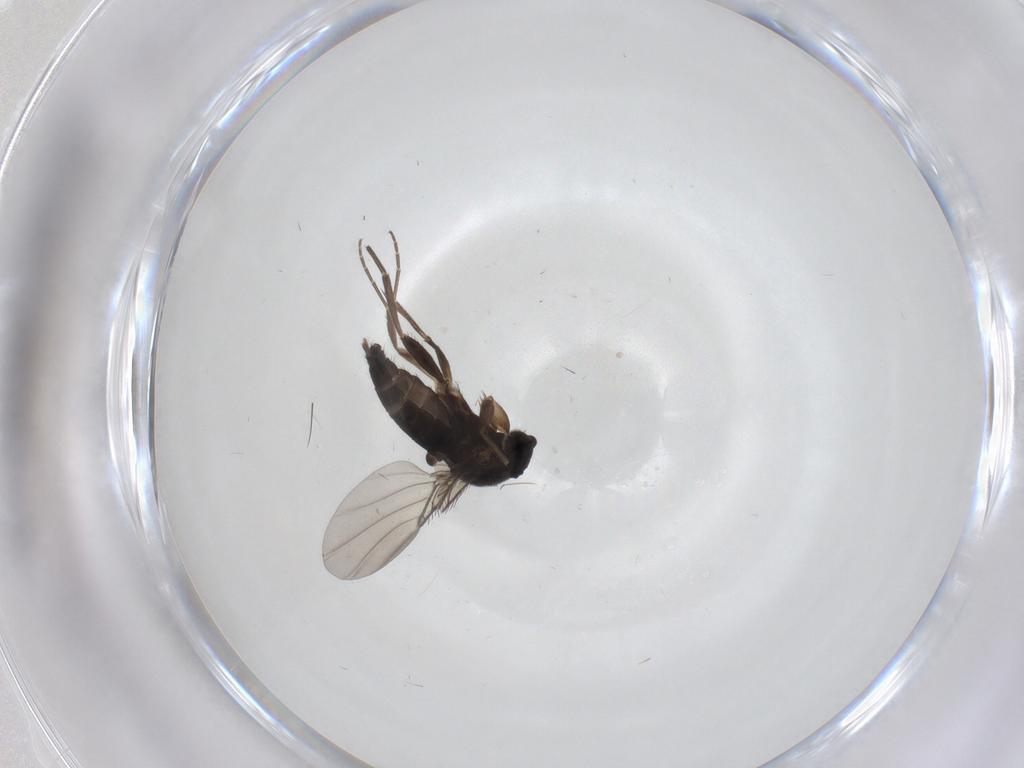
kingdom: Animalia
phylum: Arthropoda
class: Insecta
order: Diptera
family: Phoridae
